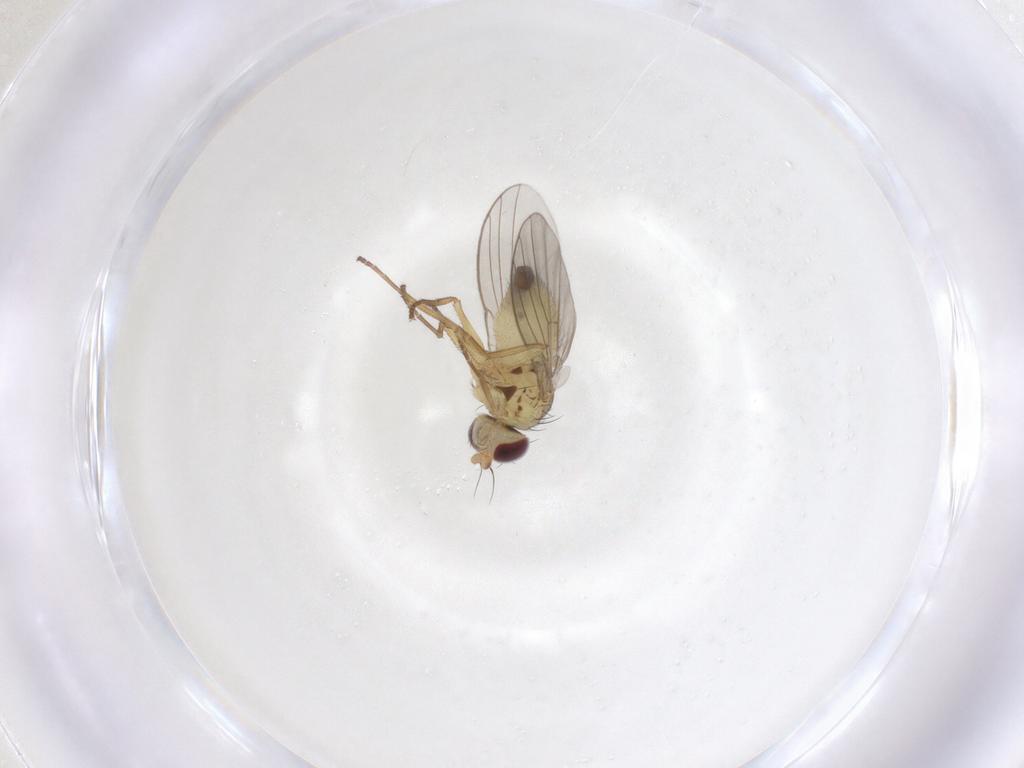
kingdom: Animalia
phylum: Arthropoda
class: Insecta
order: Diptera
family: Agromyzidae
